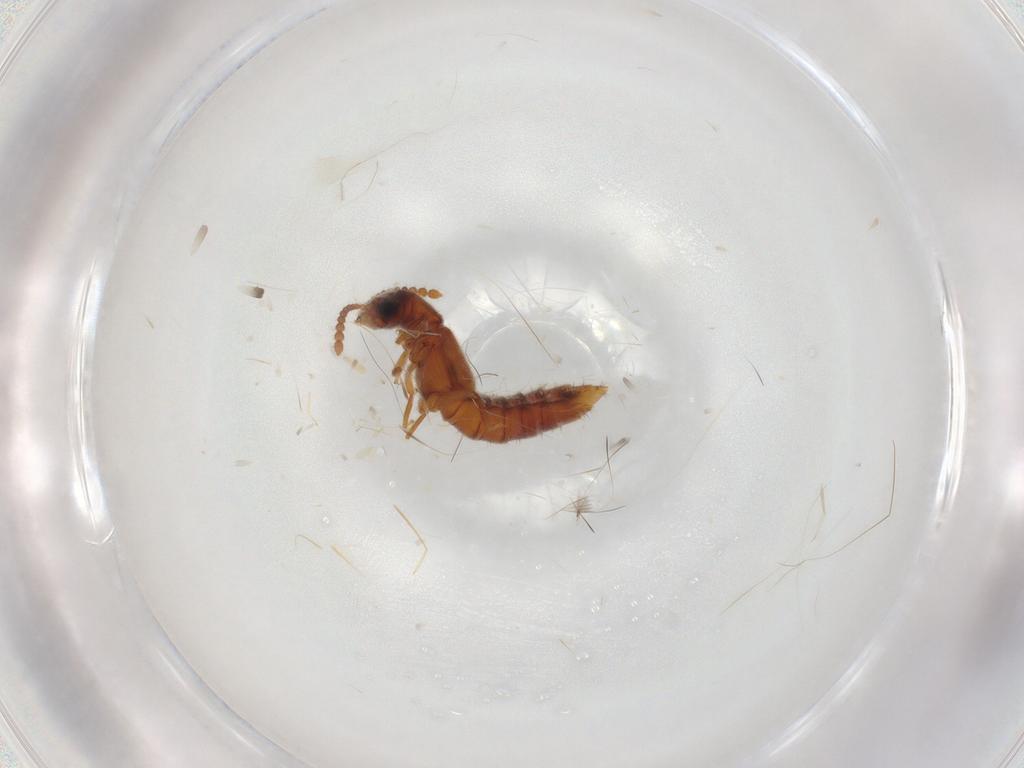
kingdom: Animalia
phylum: Arthropoda
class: Insecta
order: Coleoptera
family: Staphylinidae
